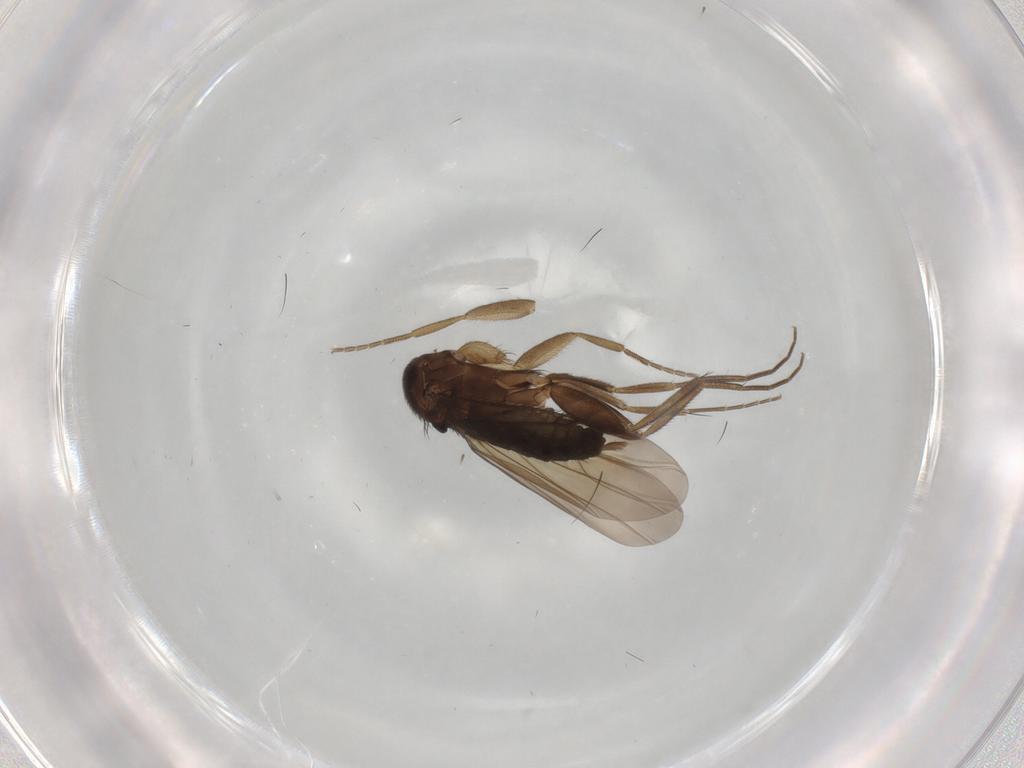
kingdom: Animalia
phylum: Arthropoda
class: Insecta
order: Diptera
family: Phoridae
